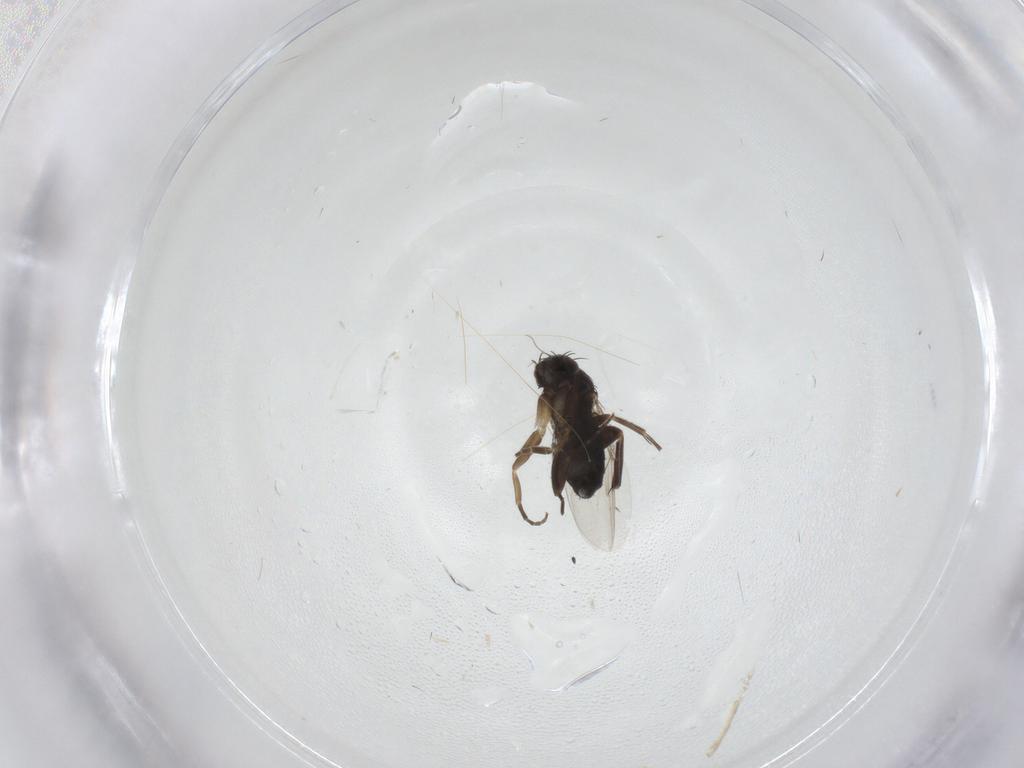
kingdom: Animalia
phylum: Arthropoda
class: Insecta
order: Diptera
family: Phoridae
